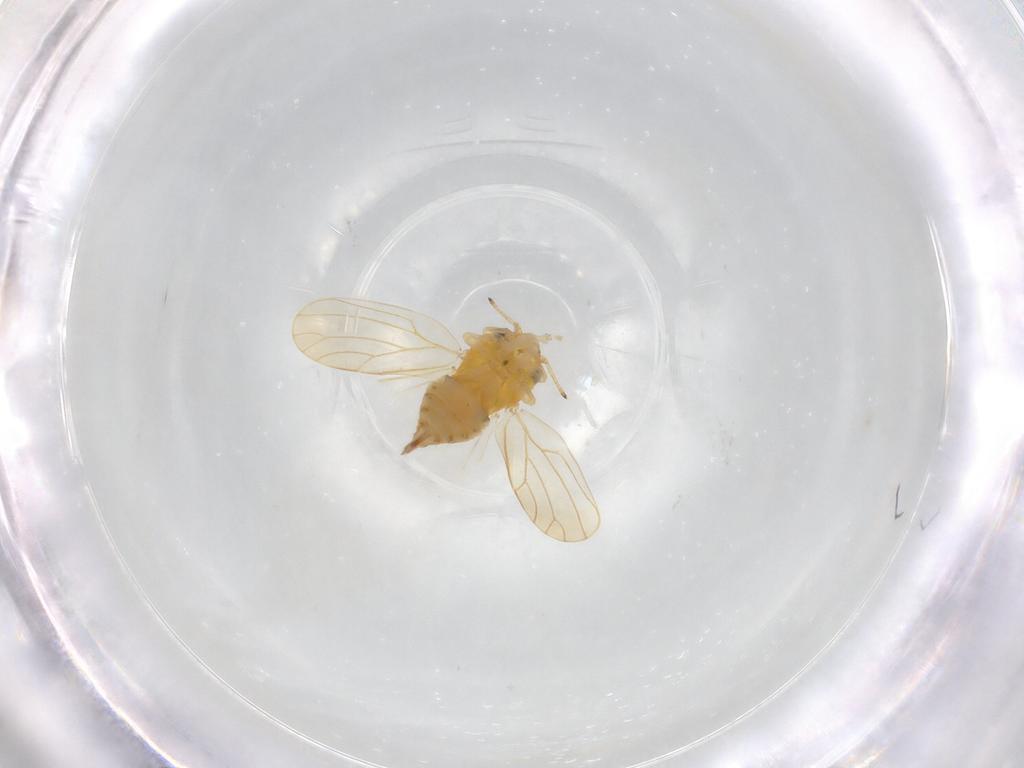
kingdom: Animalia
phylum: Arthropoda
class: Insecta
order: Hemiptera
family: Aphalaridae
